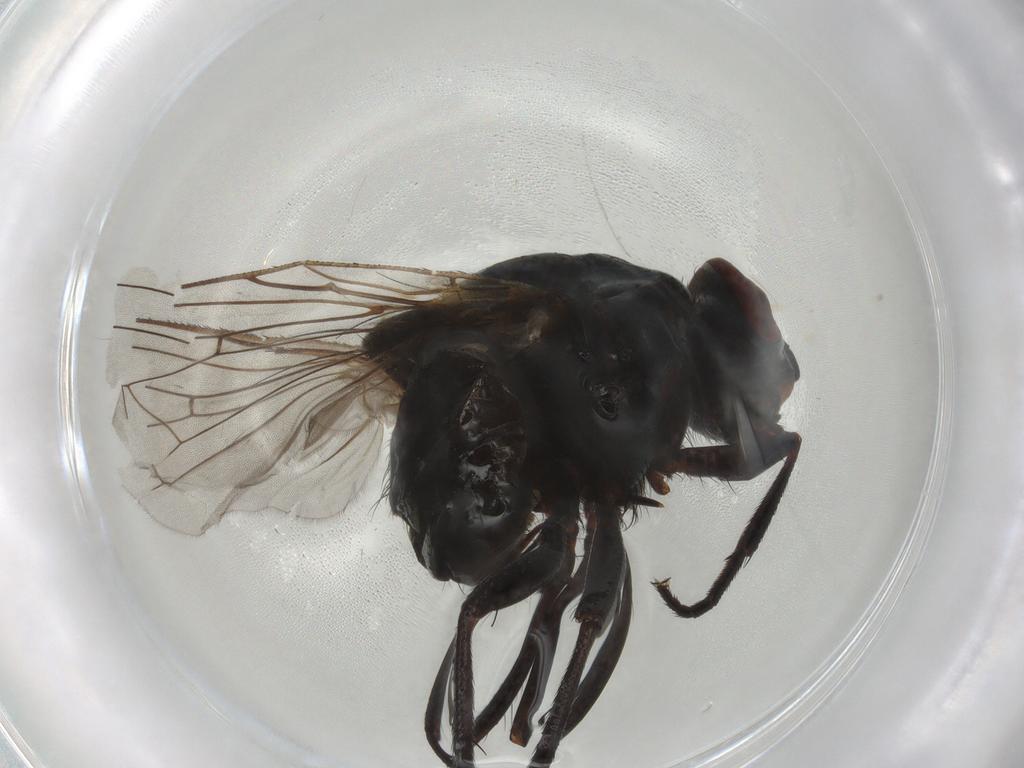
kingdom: Animalia
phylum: Arthropoda
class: Insecta
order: Diptera
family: Anthomyiidae
